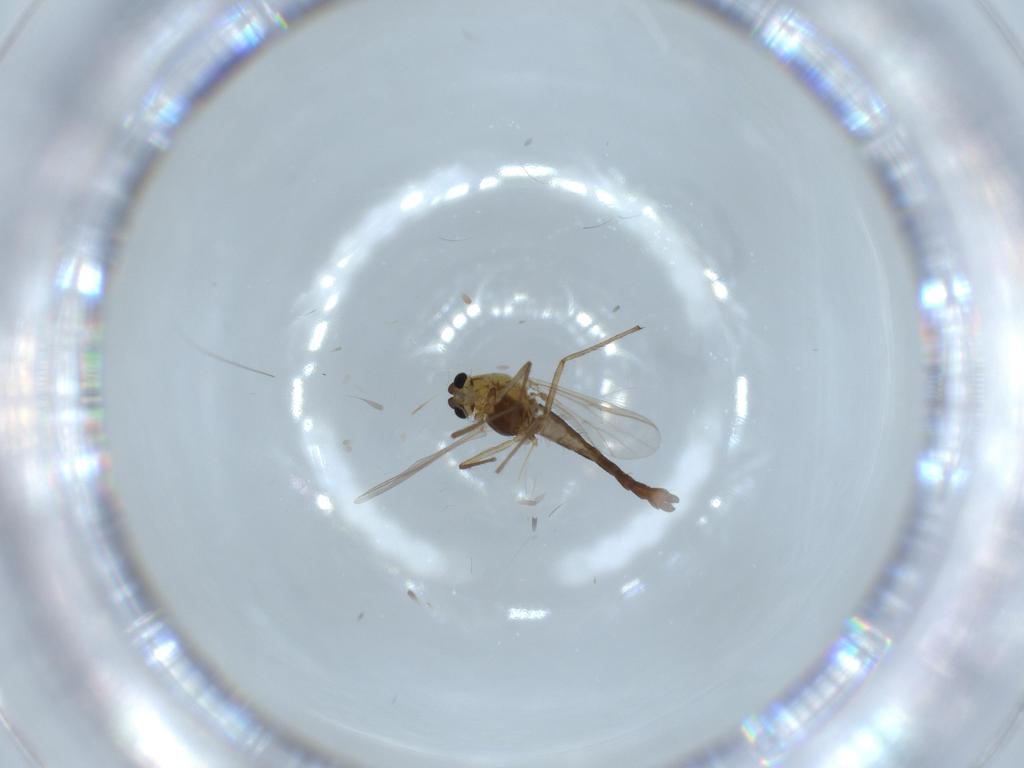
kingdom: Animalia
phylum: Arthropoda
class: Insecta
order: Diptera
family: Chironomidae
